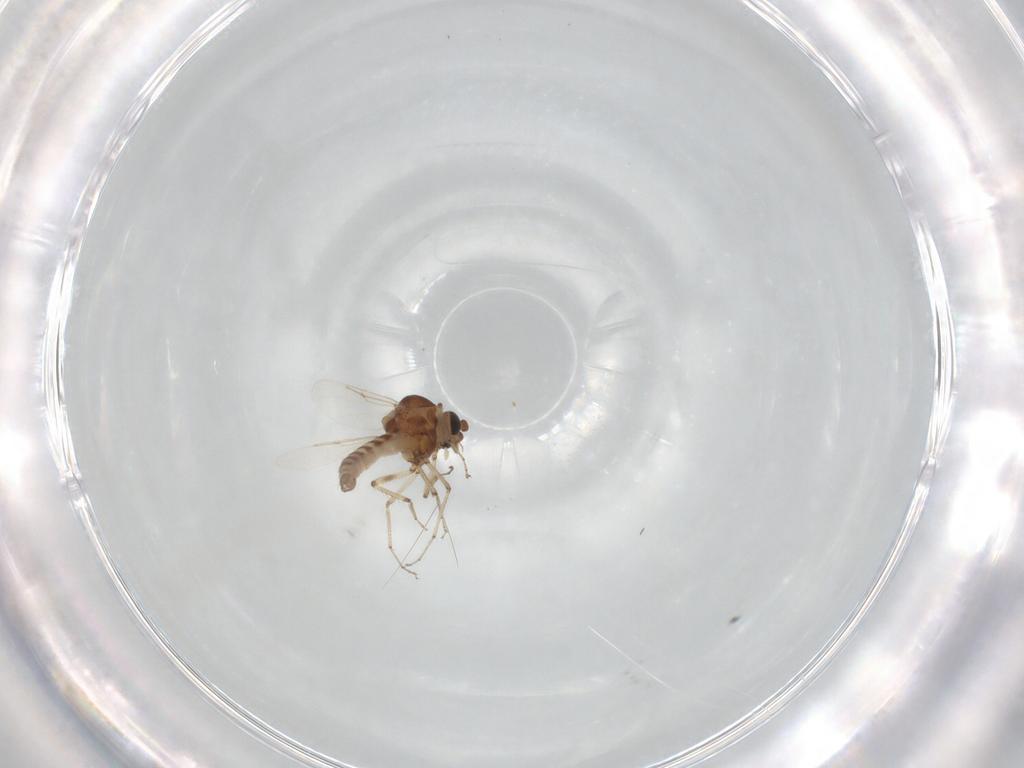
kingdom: Animalia
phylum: Arthropoda
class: Insecta
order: Diptera
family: Ceratopogonidae
